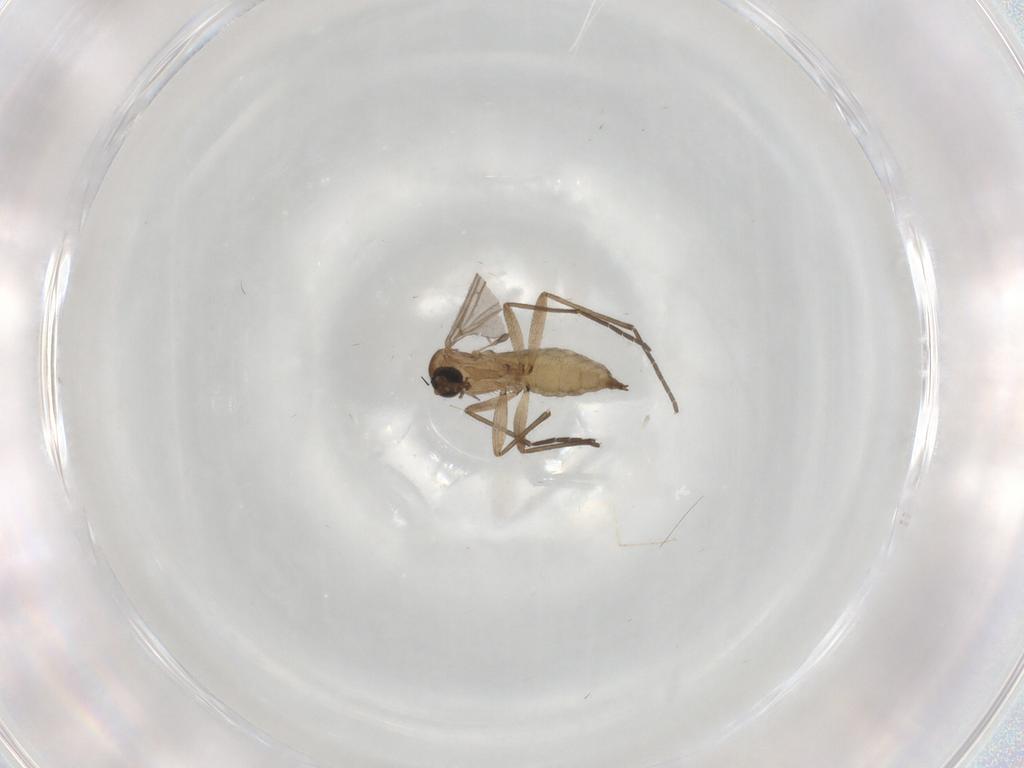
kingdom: Animalia
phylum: Arthropoda
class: Insecta
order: Diptera
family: Sciaridae
